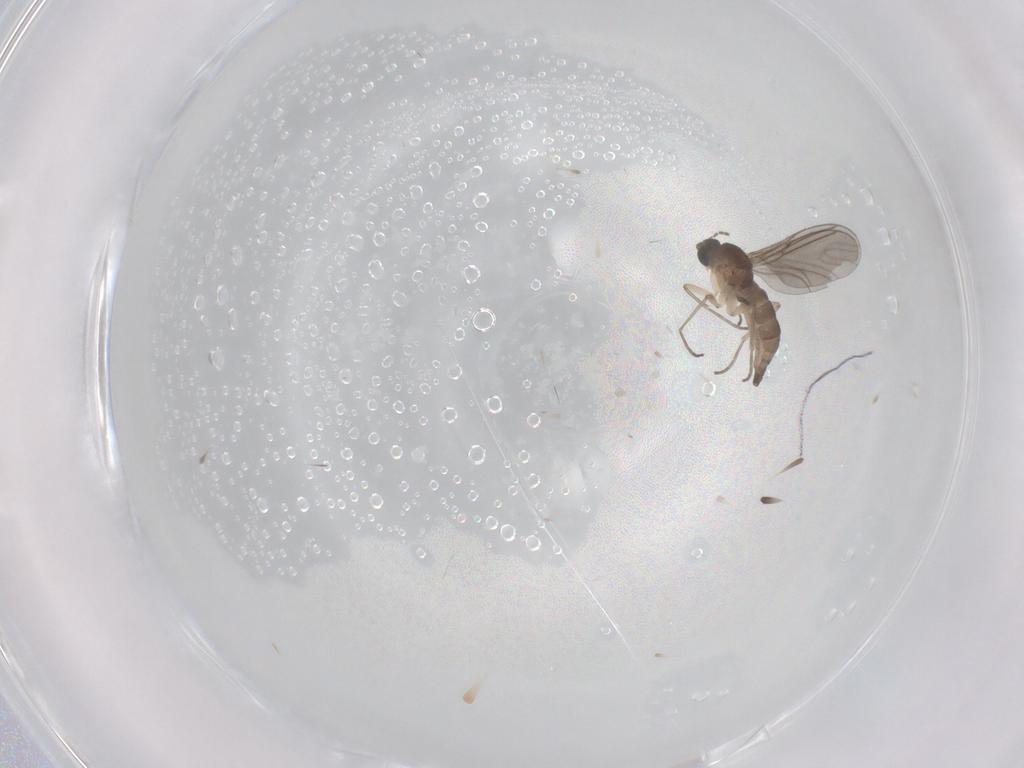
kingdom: Animalia
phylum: Arthropoda
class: Insecta
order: Diptera
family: Sciaridae
